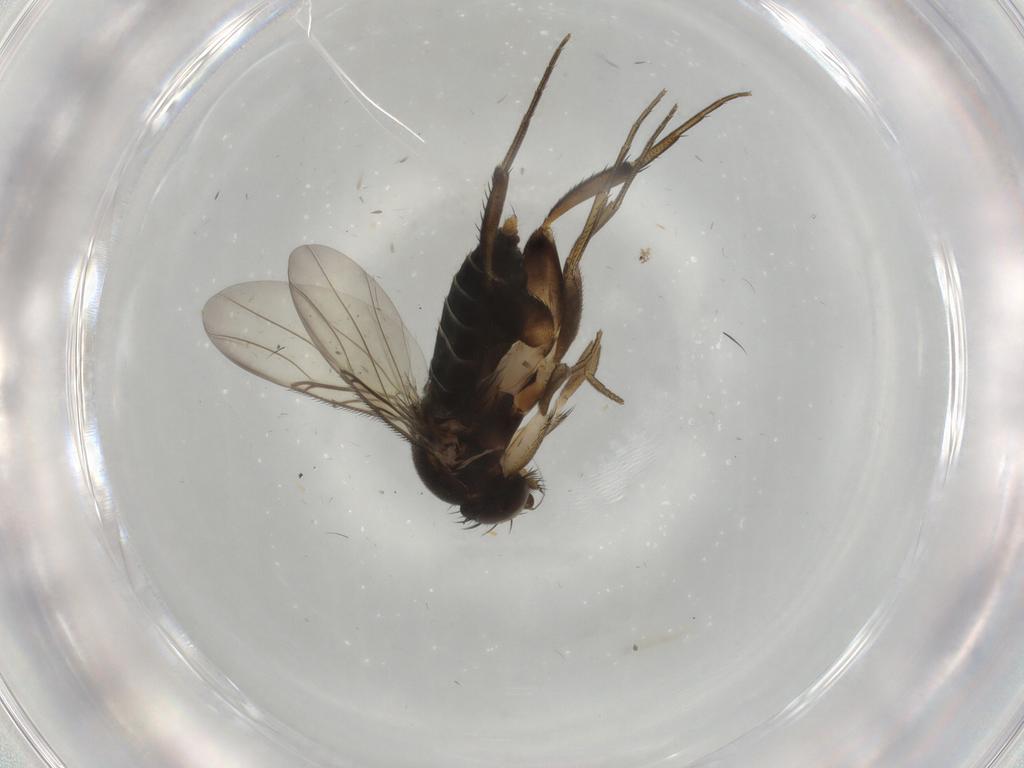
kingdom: Animalia
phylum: Arthropoda
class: Insecta
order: Diptera
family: Phoridae
